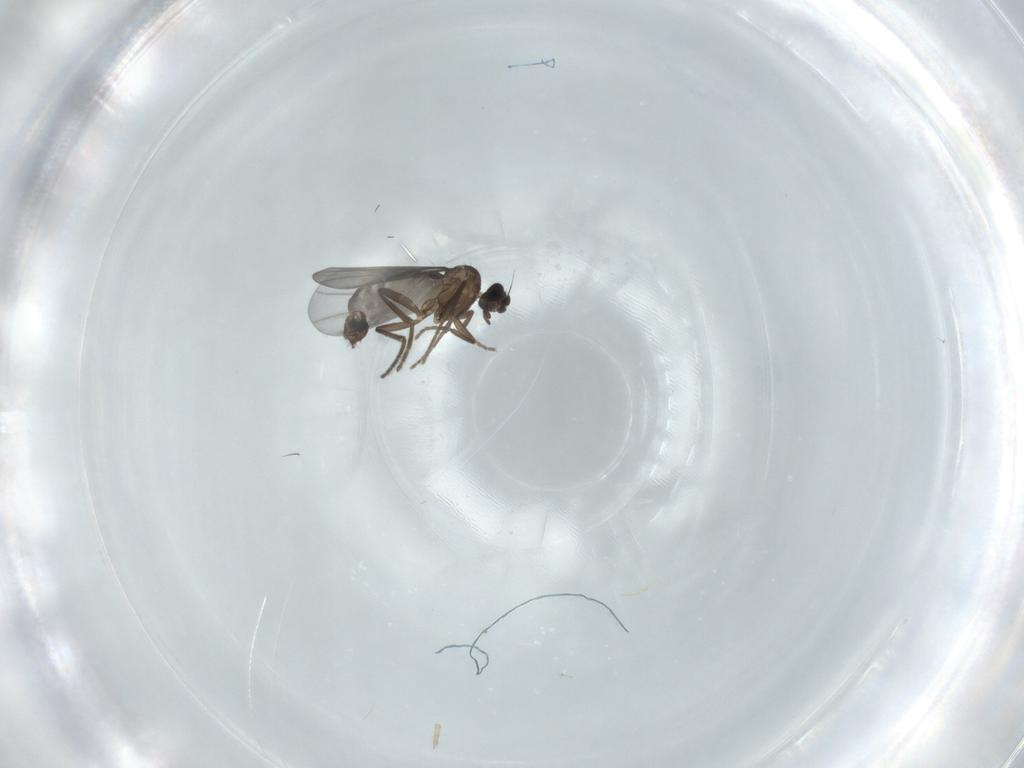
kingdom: Animalia
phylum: Arthropoda
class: Insecta
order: Diptera
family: Phoridae
